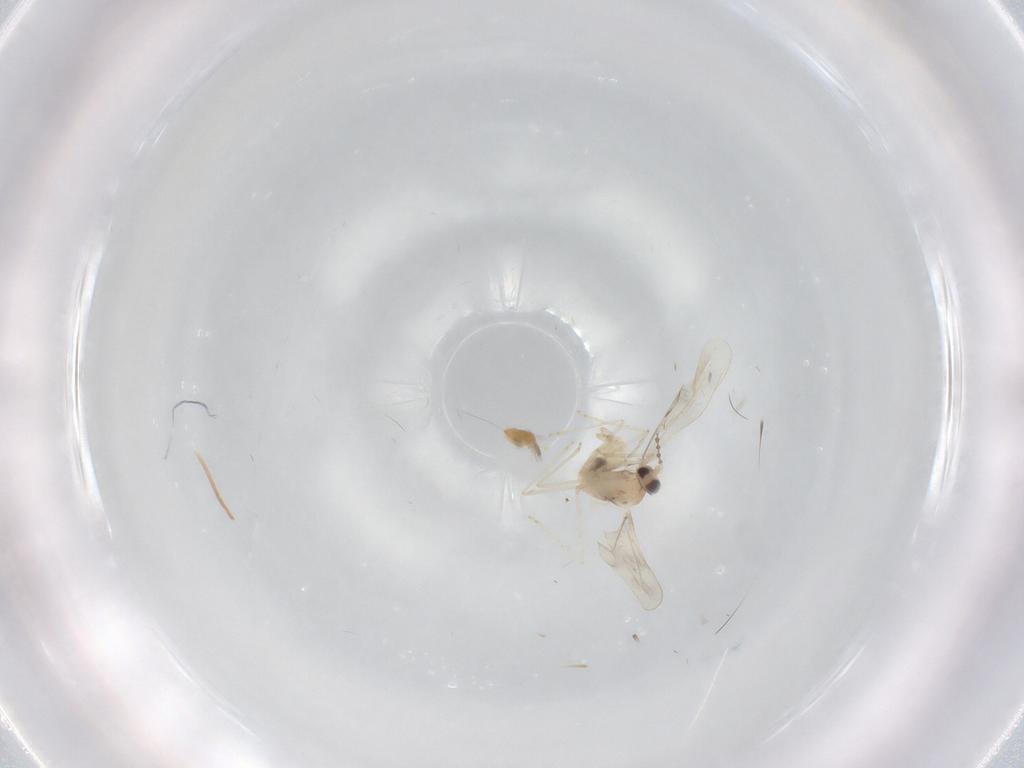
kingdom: Animalia
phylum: Arthropoda
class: Insecta
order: Diptera
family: Cecidomyiidae
